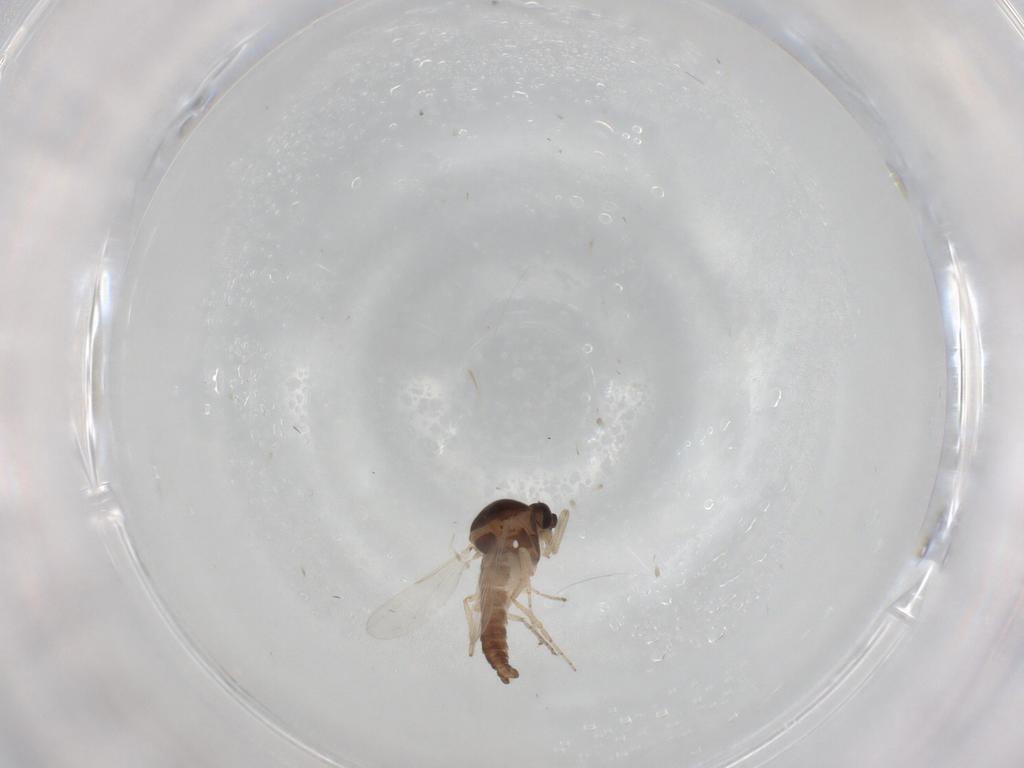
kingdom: Animalia
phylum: Arthropoda
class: Insecta
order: Diptera
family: Ceratopogonidae
